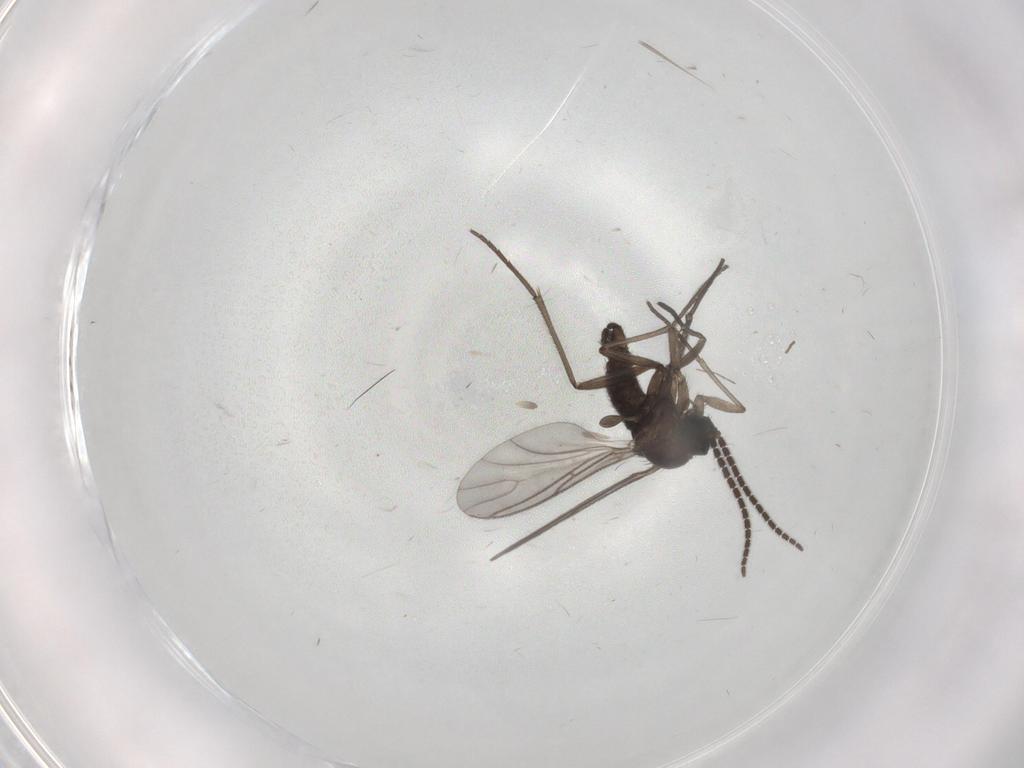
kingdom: Animalia
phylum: Arthropoda
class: Insecta
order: Diptera
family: Sciaridae
